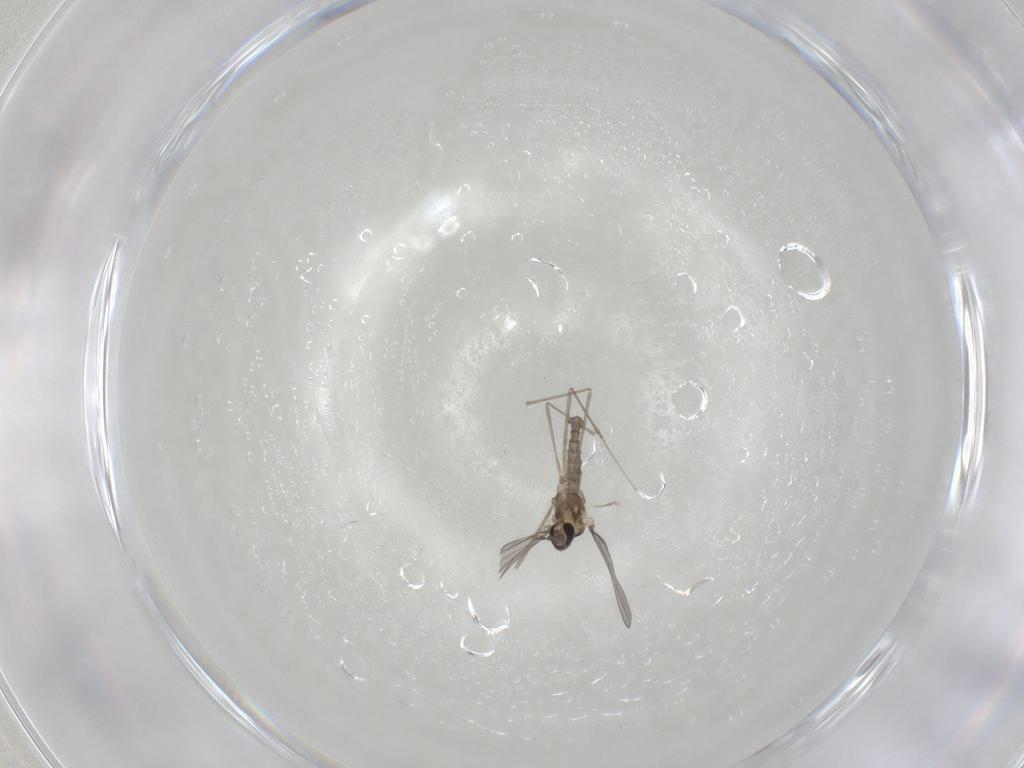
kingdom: Animalia
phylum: Arthropoda
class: Insecta
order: Diptera
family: Cecidomyiidae
